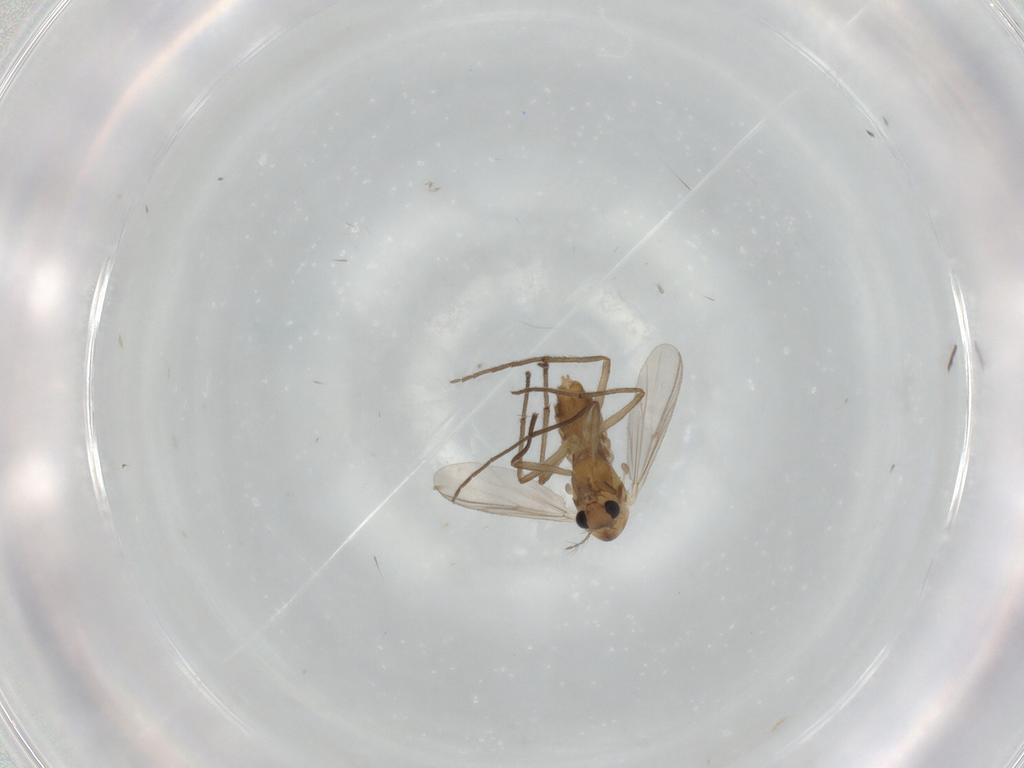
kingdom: Animalia
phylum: Arthropoda
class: Insecta
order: Diptera
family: Chironomidae
